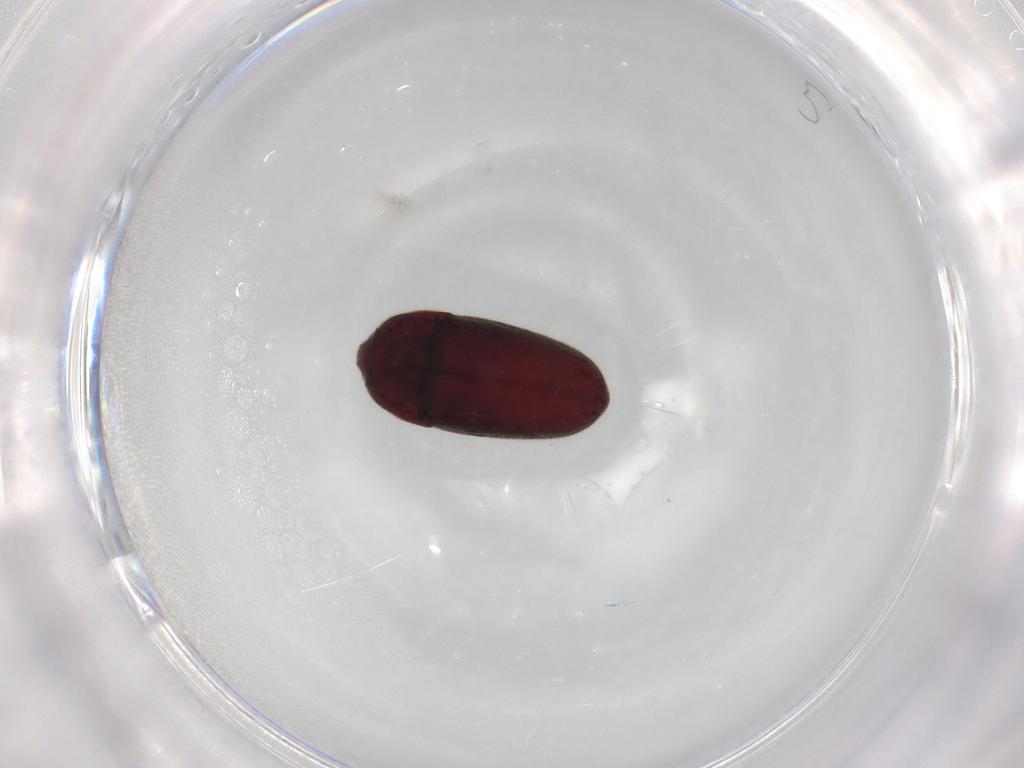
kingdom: Animalia
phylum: Arthropoda
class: Insecta
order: Coleoptera
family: Throscidae
